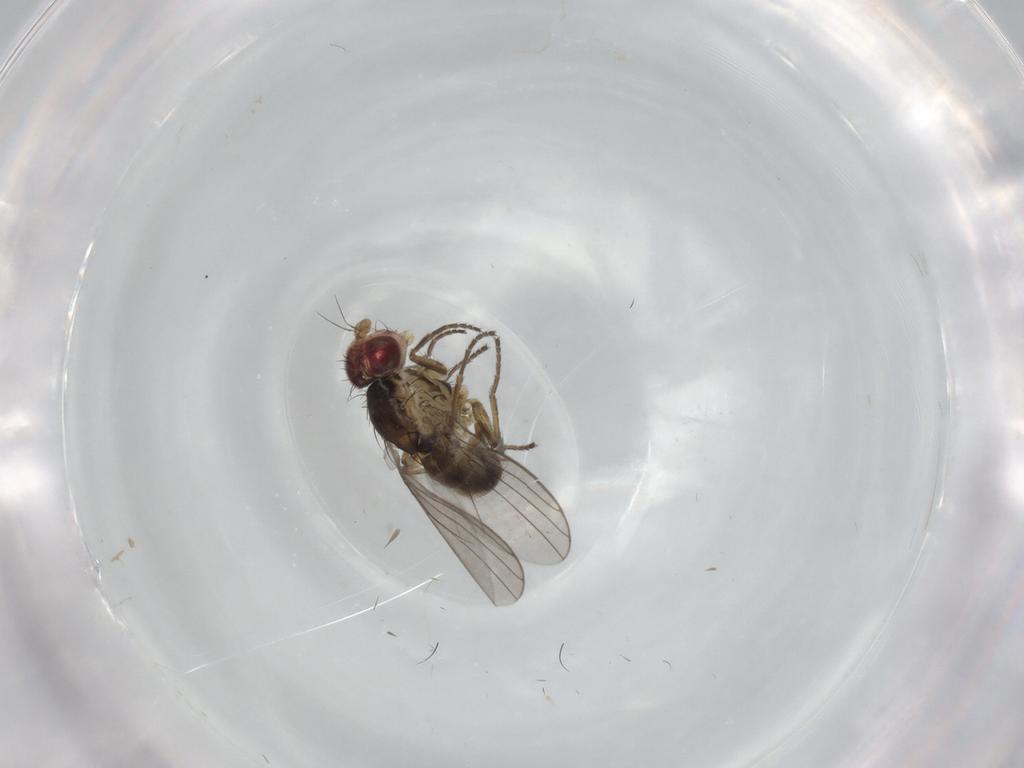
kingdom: Animalia
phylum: Arthropoda
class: Insecta
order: Diptera
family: Agromyzidae
